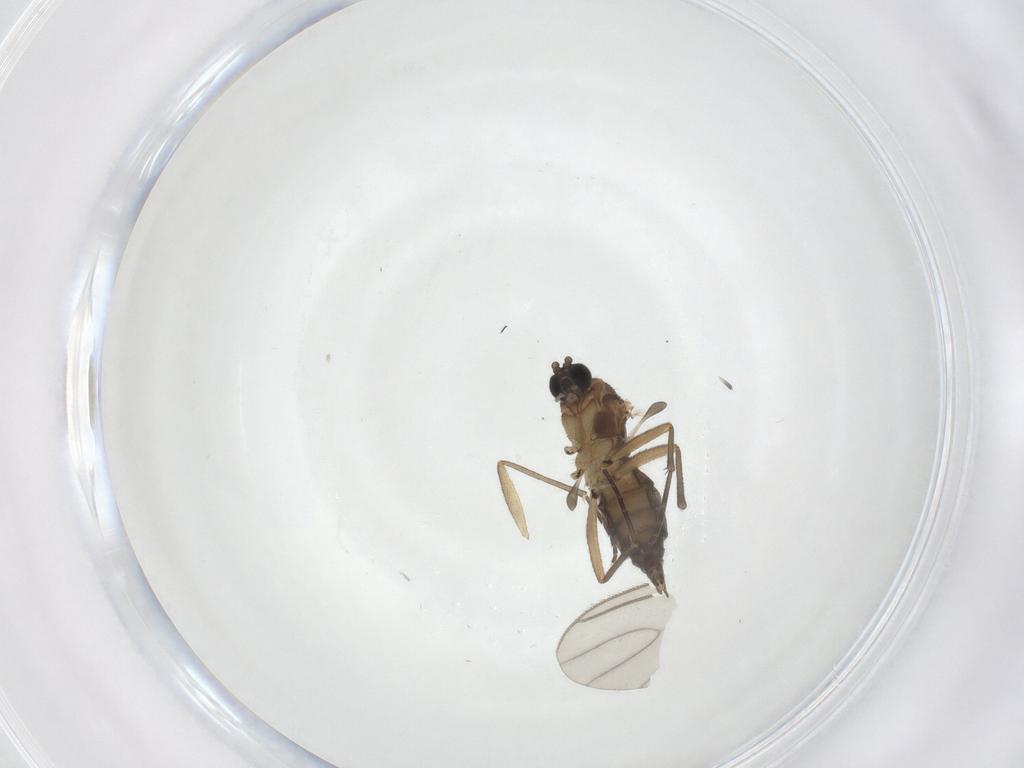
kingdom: Animalia
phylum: Arthropoda
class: Insecta
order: Diptera
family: Sciaridae
